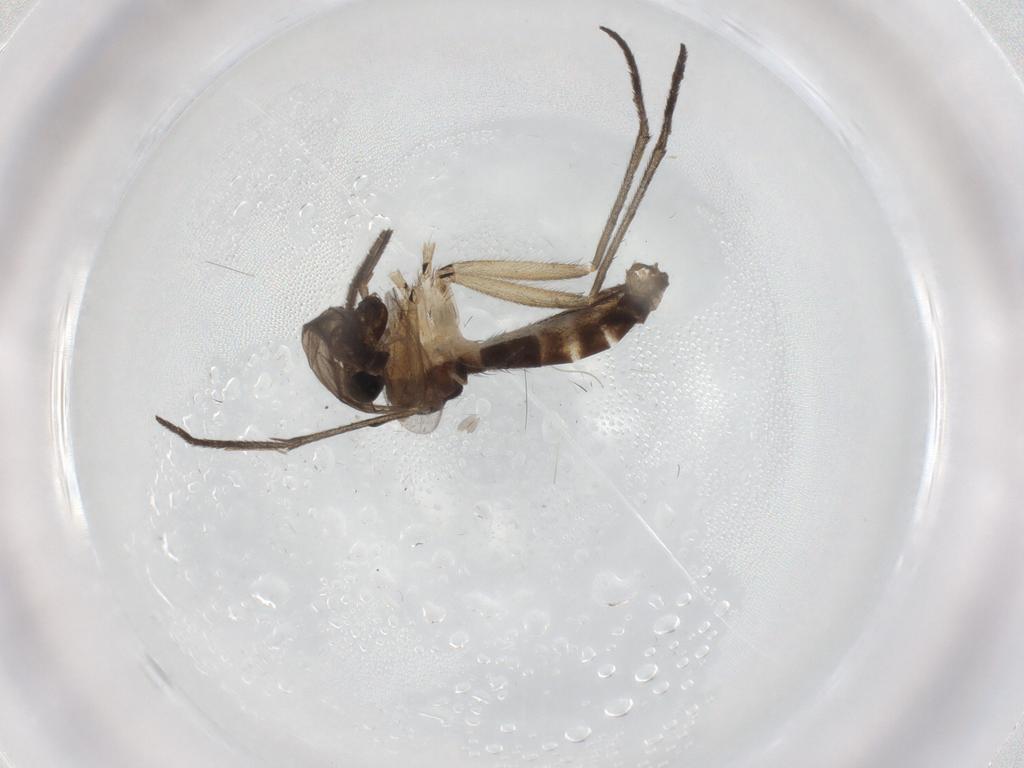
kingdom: Animalia
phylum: Arthropoda
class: Insecta
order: Diptera
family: Sciaridae
